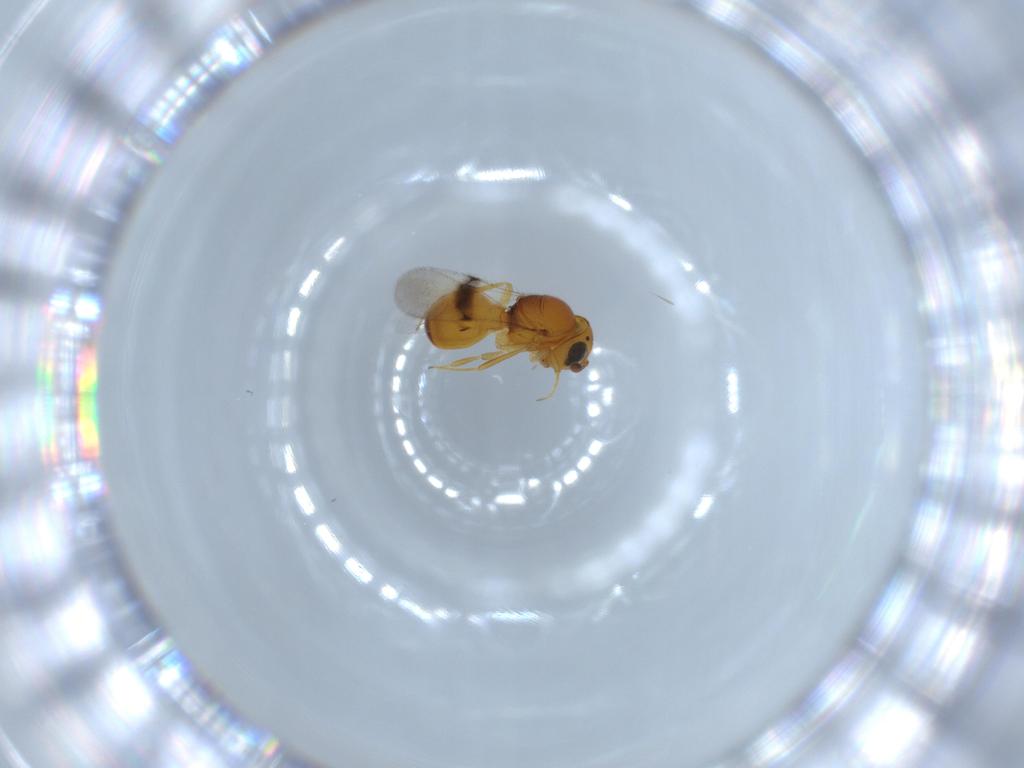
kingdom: Animalia
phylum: Arthropoda
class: Insecta
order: Hymenoptera
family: Scelionidae
